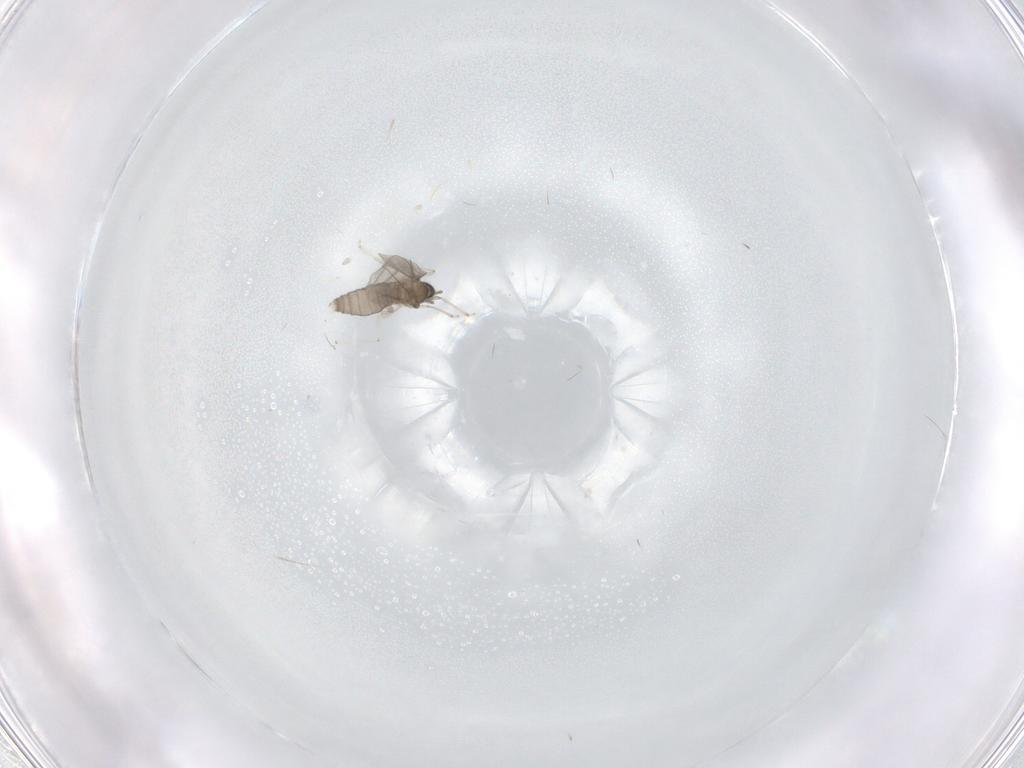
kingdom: Animalia
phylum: Arthropoda
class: Insecta
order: Diptera
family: Cecidomyiidae
